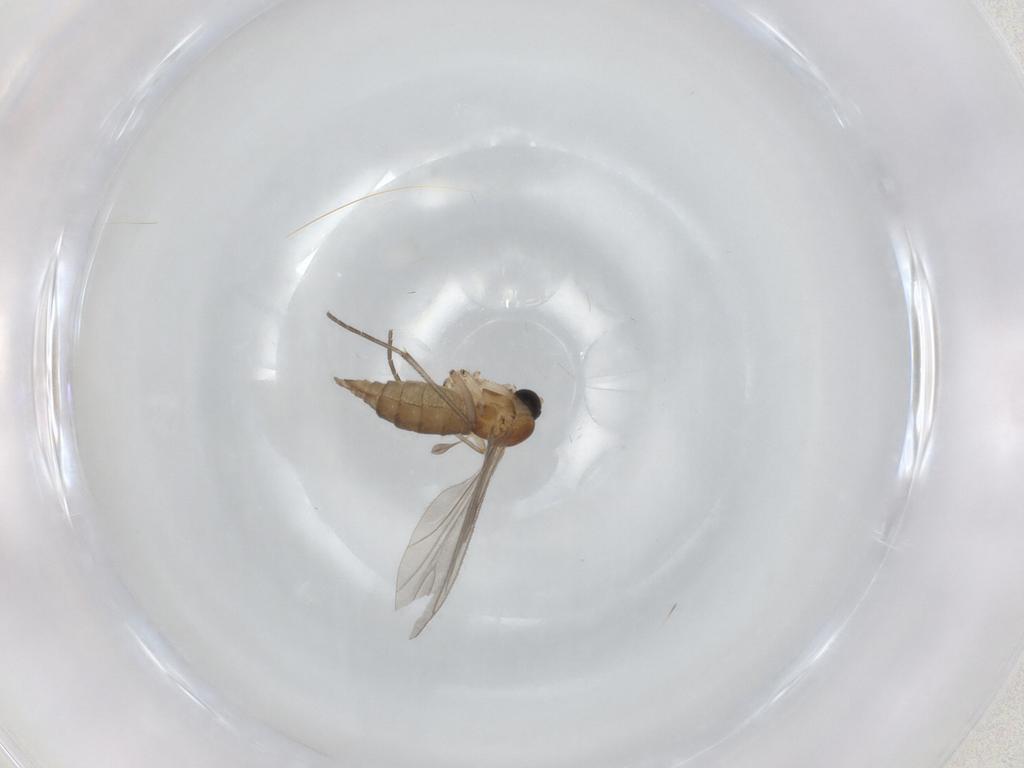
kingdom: Animalia
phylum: Arthropoda
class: Insecta
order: Diptera
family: Sciaridae
